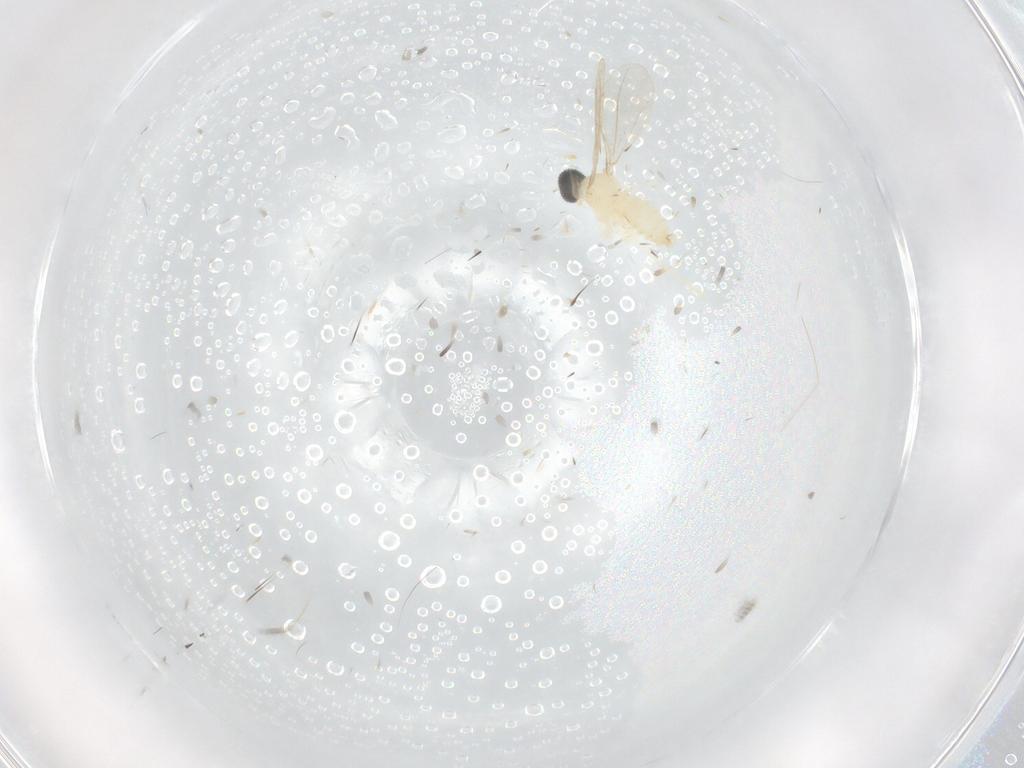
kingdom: Animalia
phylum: Arthropoda
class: Insecta
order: Diptera
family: Cecidomyiidae
